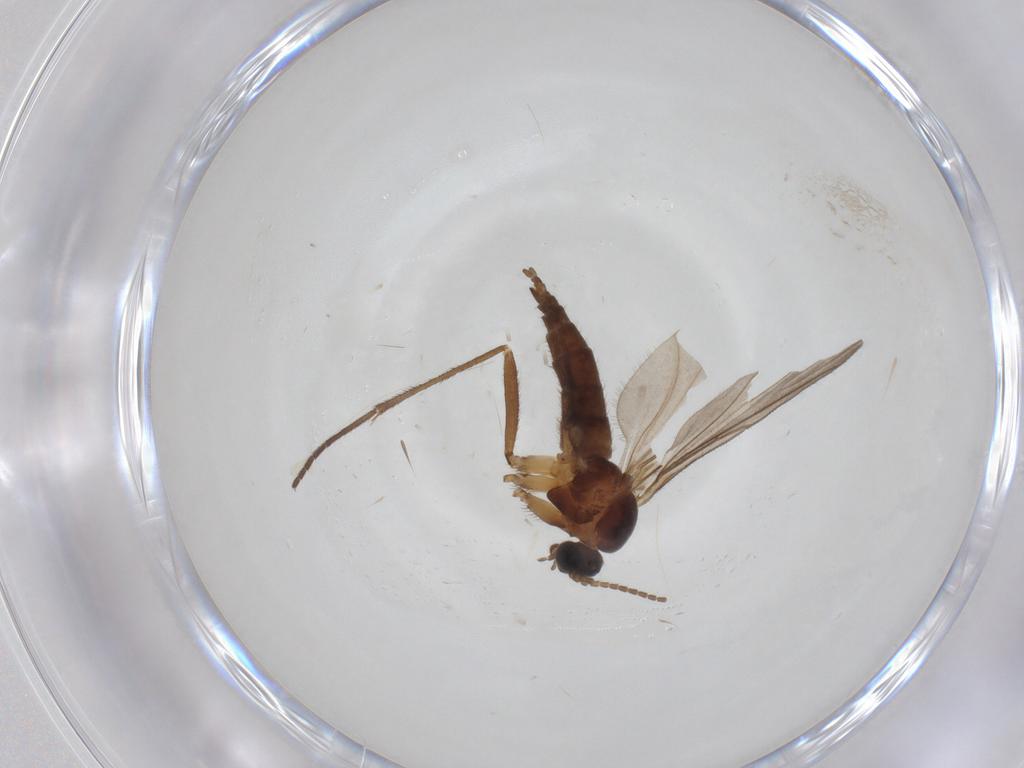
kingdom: Animalia
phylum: Arthropoda
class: Insecta
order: Diptera
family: Sciaridae
